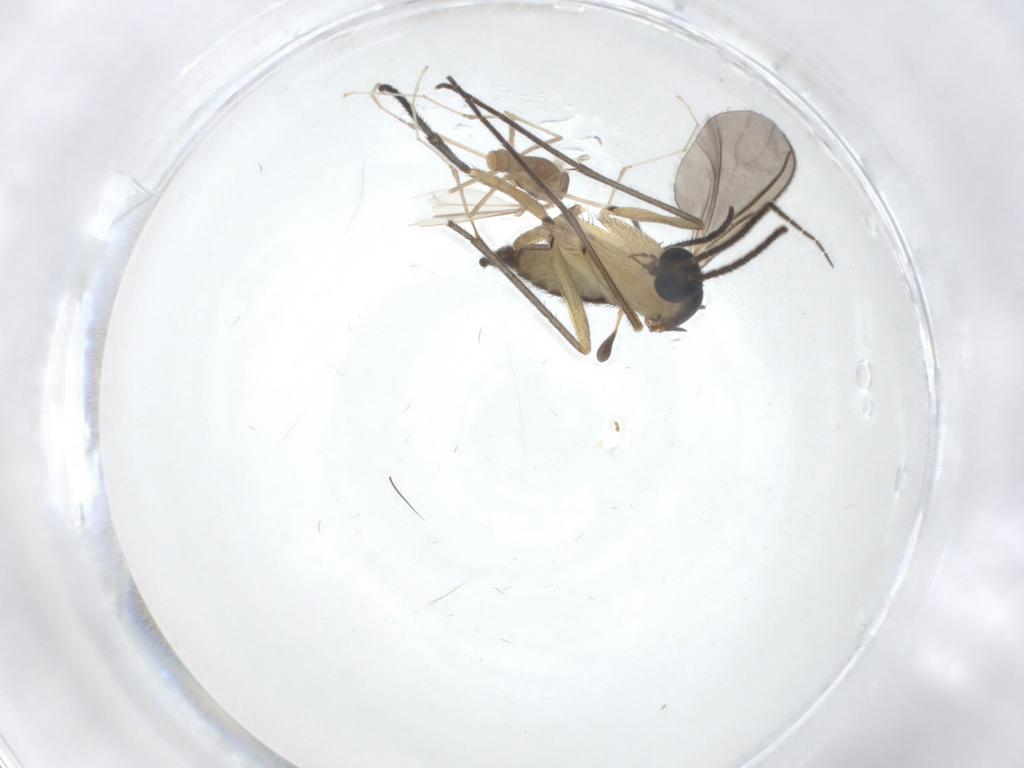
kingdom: Animalia
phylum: Arthropoda
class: Insecta
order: Diptera
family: Sciaridae
